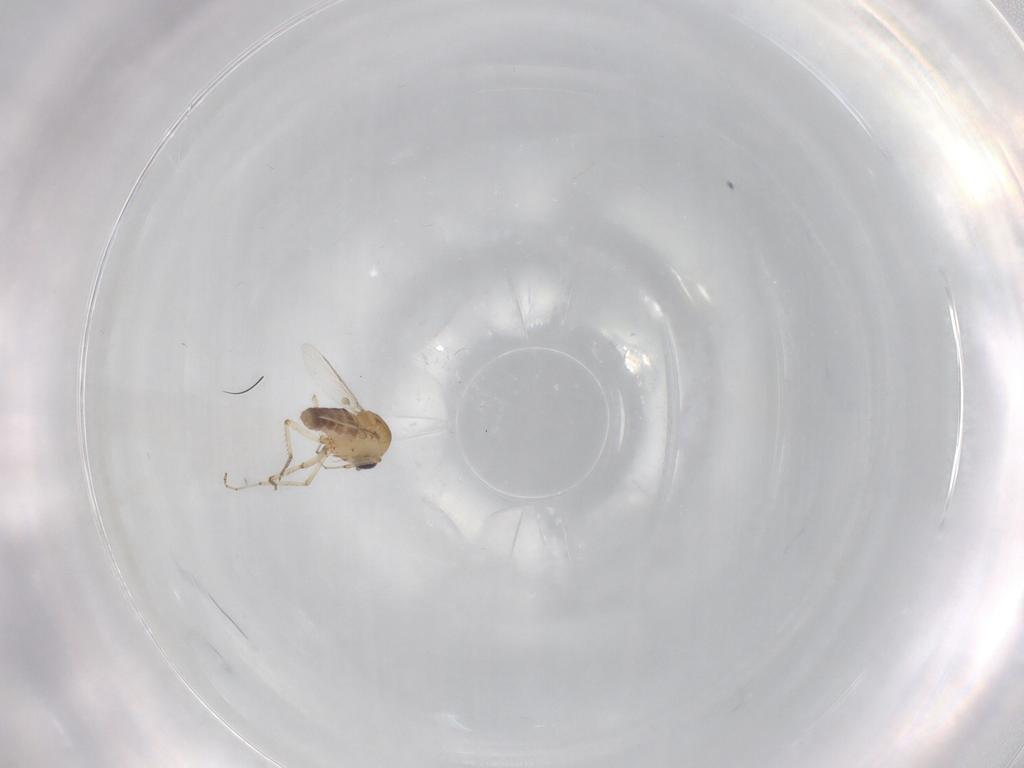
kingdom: Animalia
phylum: Arthropoda
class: Insecta
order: Diptera
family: Ceratopogonidae
